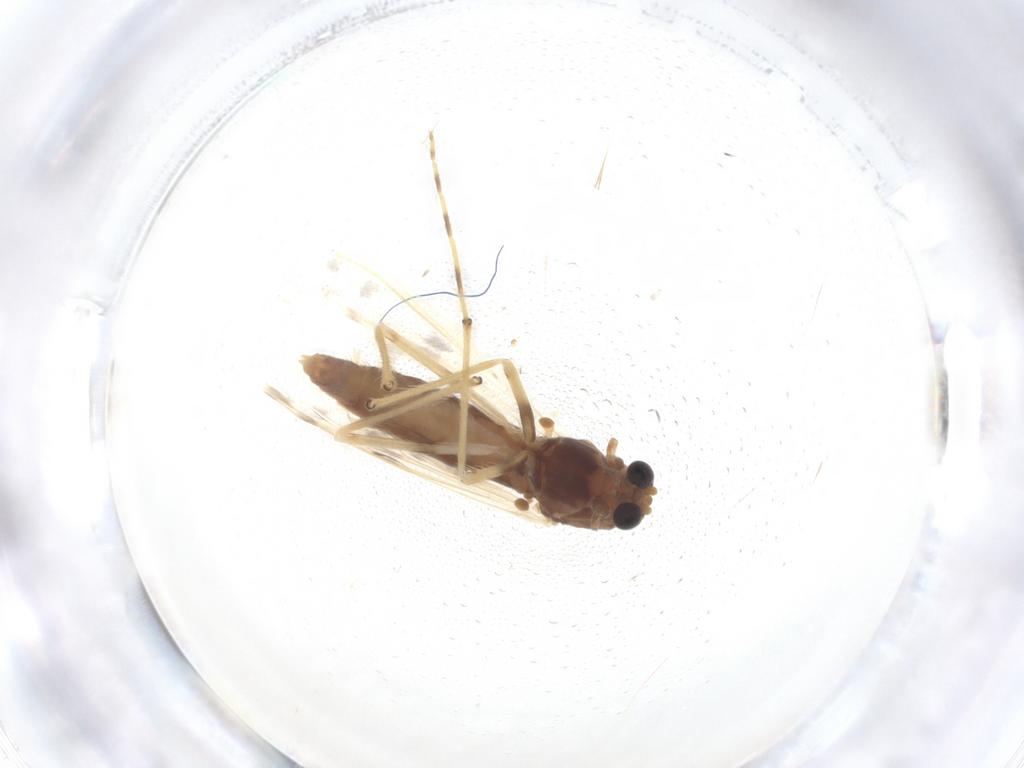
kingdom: Animalia
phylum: Arthropoda
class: Insecta
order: Diptera
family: Chironomidae
